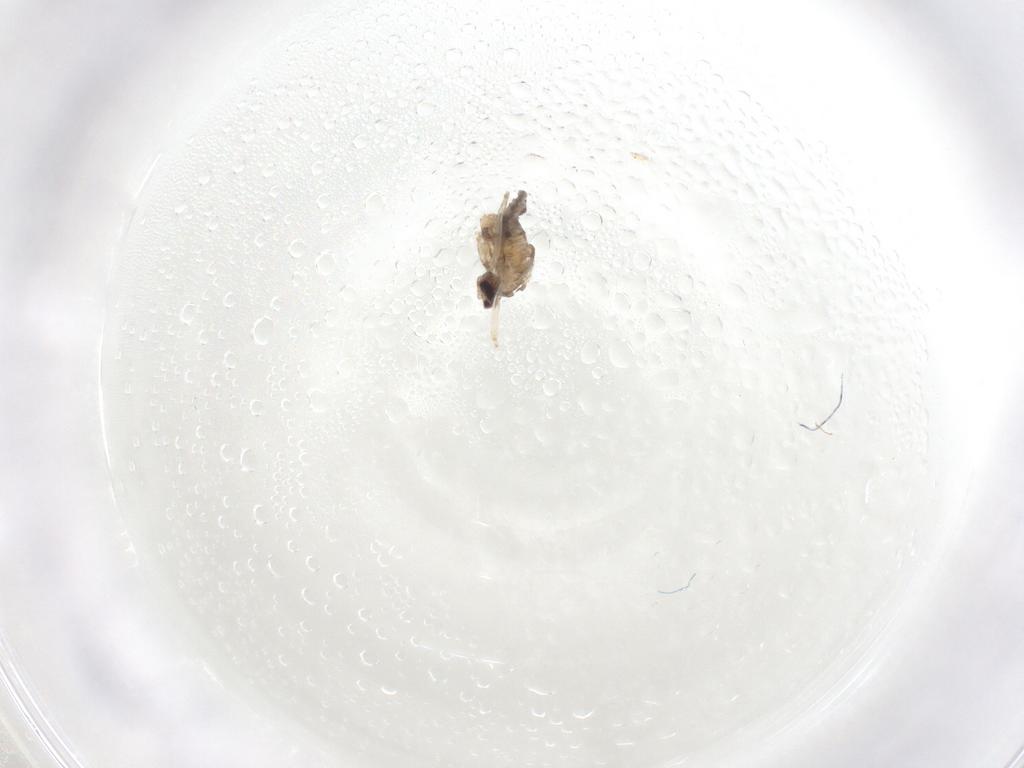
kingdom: Animalia
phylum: Arthropoda
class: Insecta
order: Diptera
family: Cecidomyiidae
